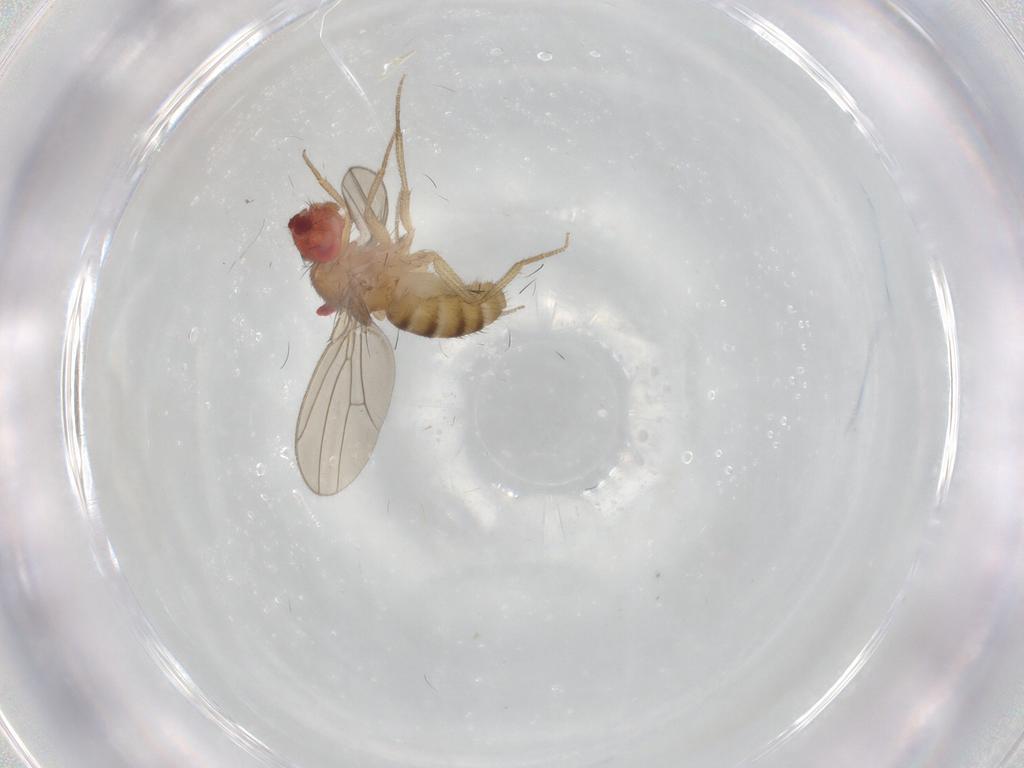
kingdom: Animalia
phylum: Arthropoda
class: Insecta
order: Diptera
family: Drosophilidae
